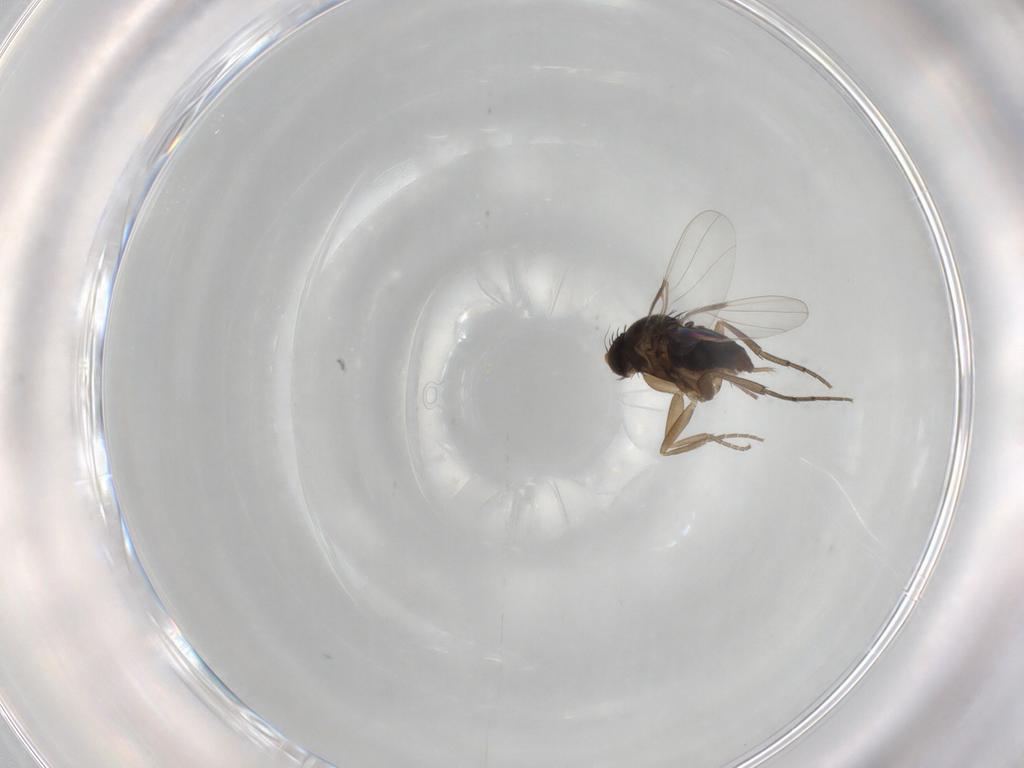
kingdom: Animalia
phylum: Arthropoda
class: Insecta
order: Diptera
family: Phoridae
